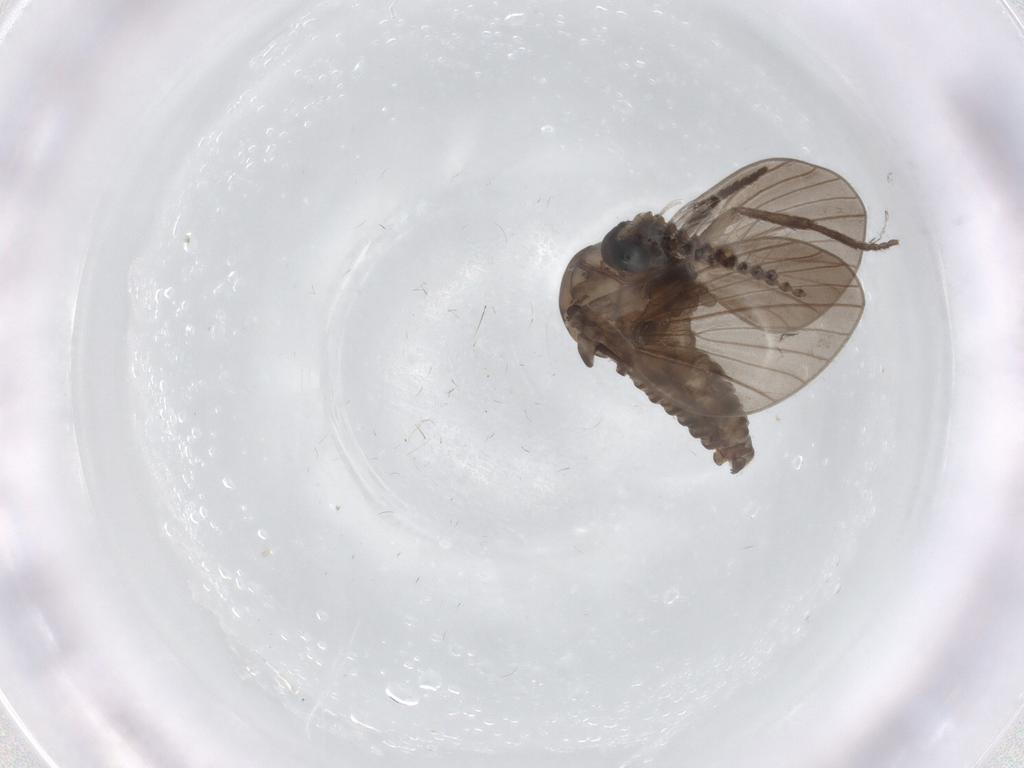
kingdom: Animalia
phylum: Arthropoda
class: Insecta
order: Diptera
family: Psychodidae
